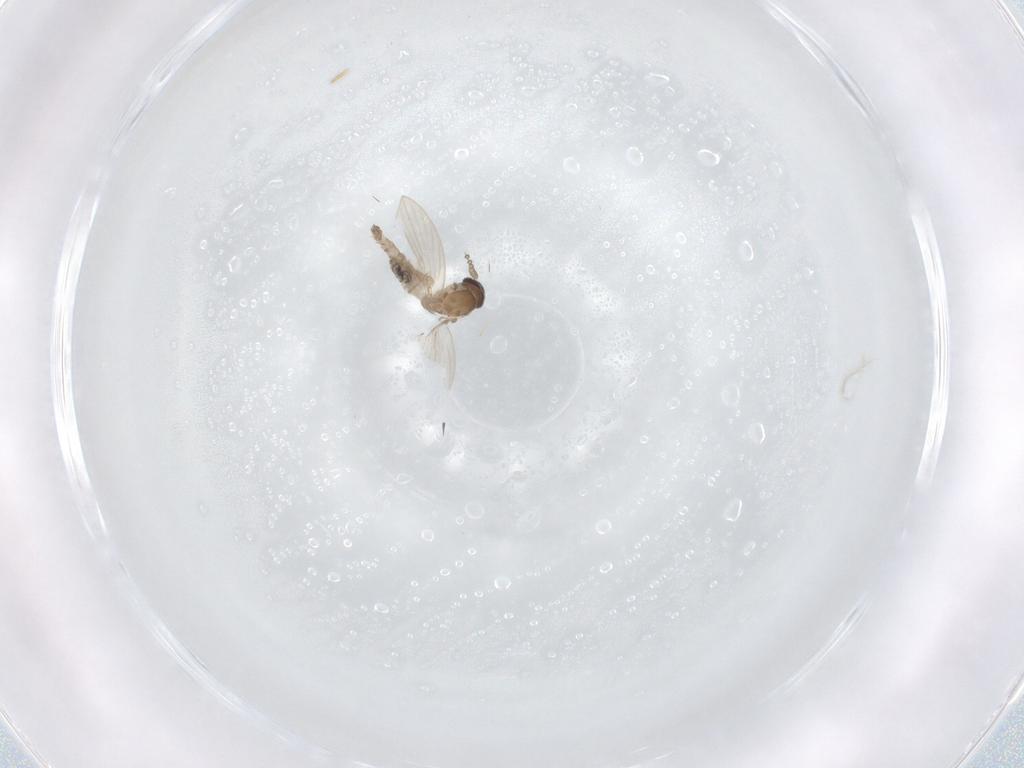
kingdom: Animalia
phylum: Arthropoda
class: Insecta
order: Diptera
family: Psychodidae
